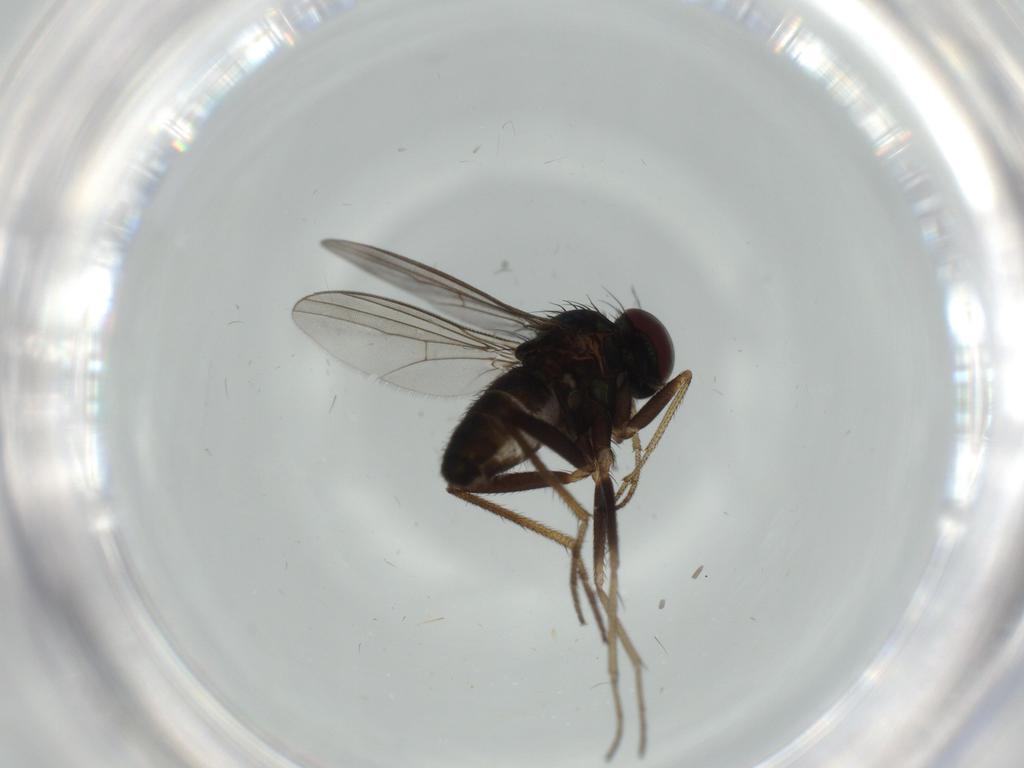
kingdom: Animalia
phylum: Arthropoda
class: Insecta
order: Diptera
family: Dolichopodidae
